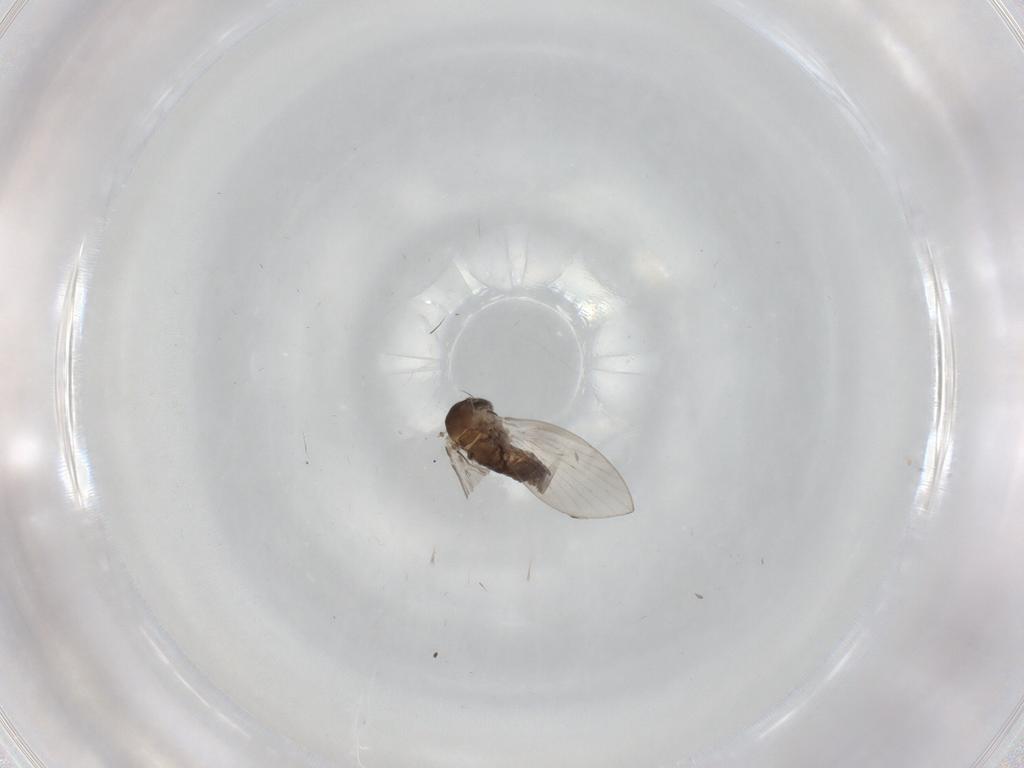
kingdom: Animalia
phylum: Arthropoda
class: Insecta
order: Diptera
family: Psychodidae
